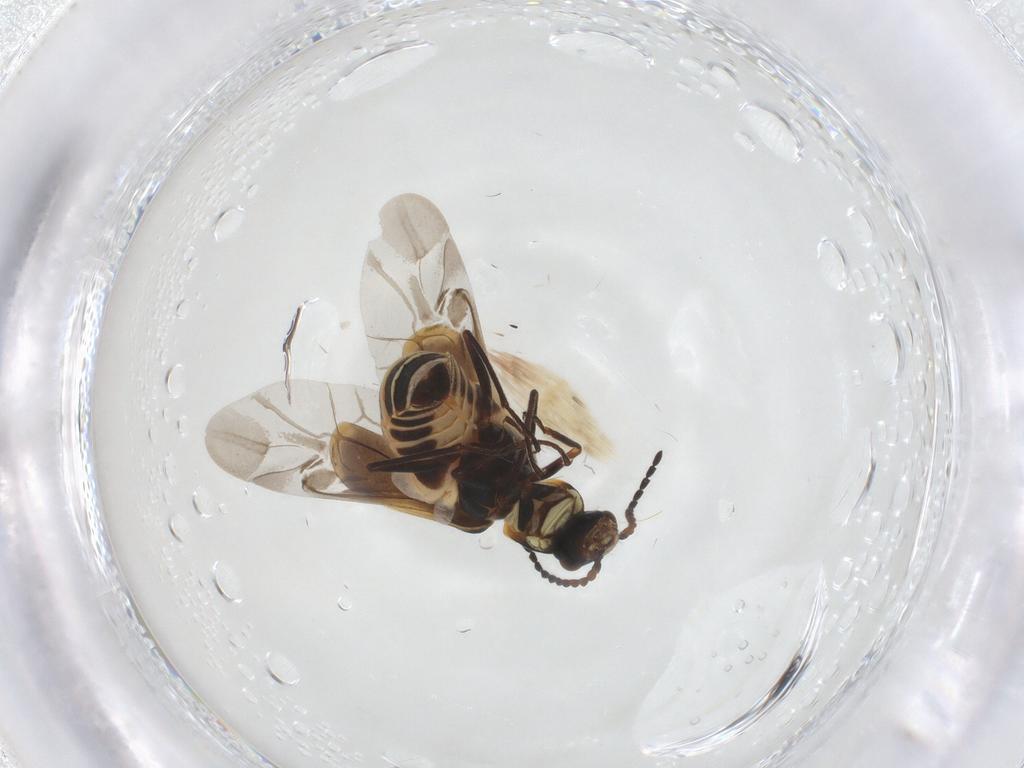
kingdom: Animalia
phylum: Arthropoda
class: Insecta
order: Coleoptera
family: Melyridae
